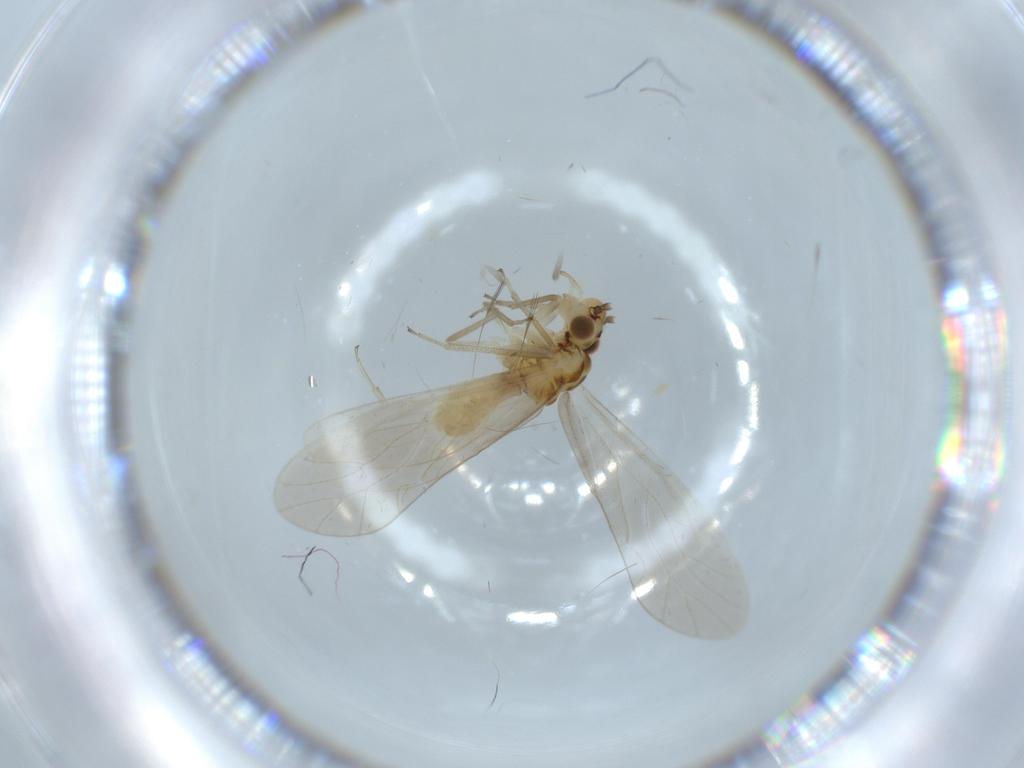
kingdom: Animalia
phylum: Arthropoda
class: Insecta
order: Psocodea
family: Caeciliusidae
